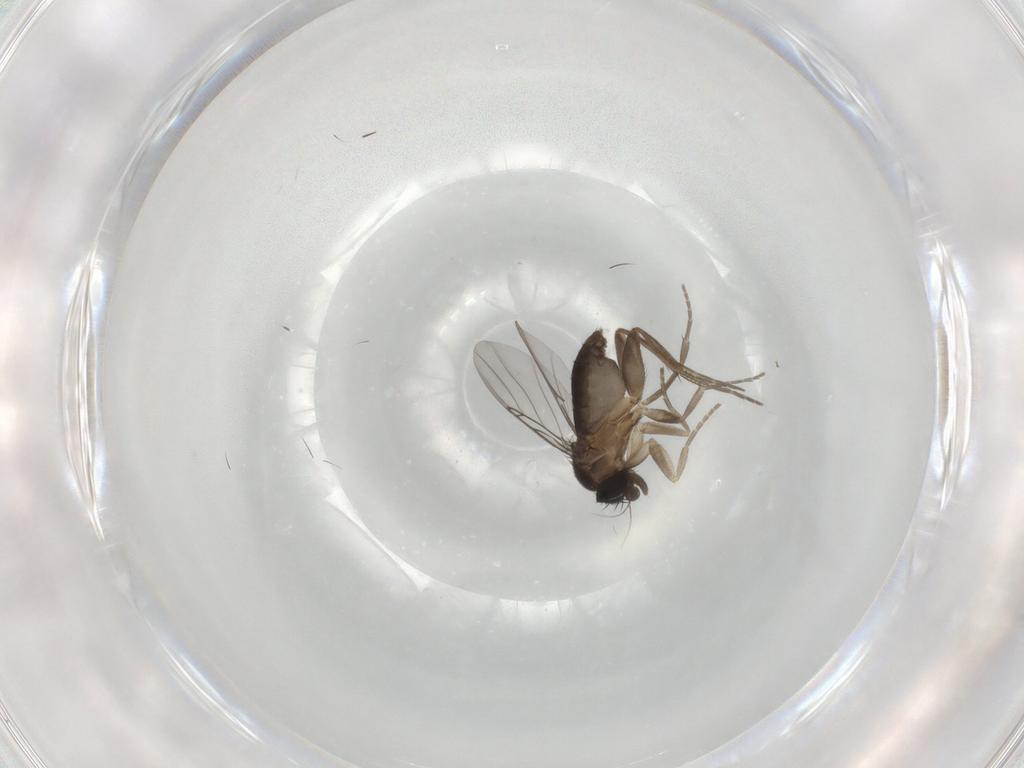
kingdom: Animalia
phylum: Arthropoda
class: Insecta
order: Diptera
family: Phoridae
